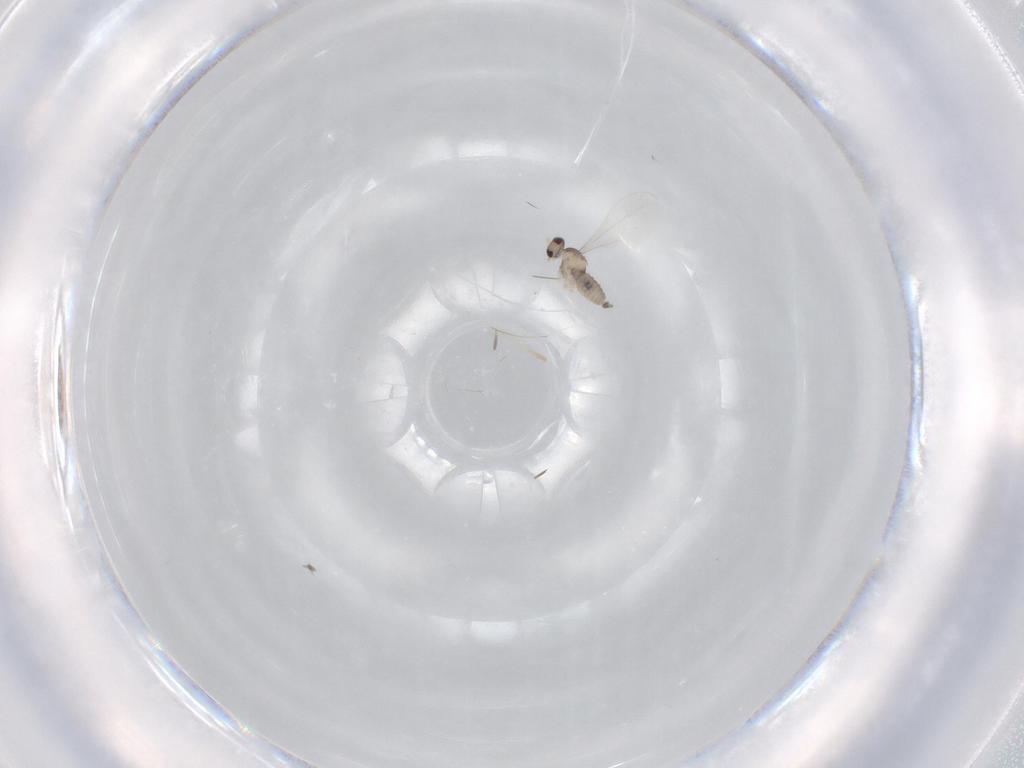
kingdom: Animalia
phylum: Arthropoda
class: Insecta
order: Diptera
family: Cecidomyiidae
